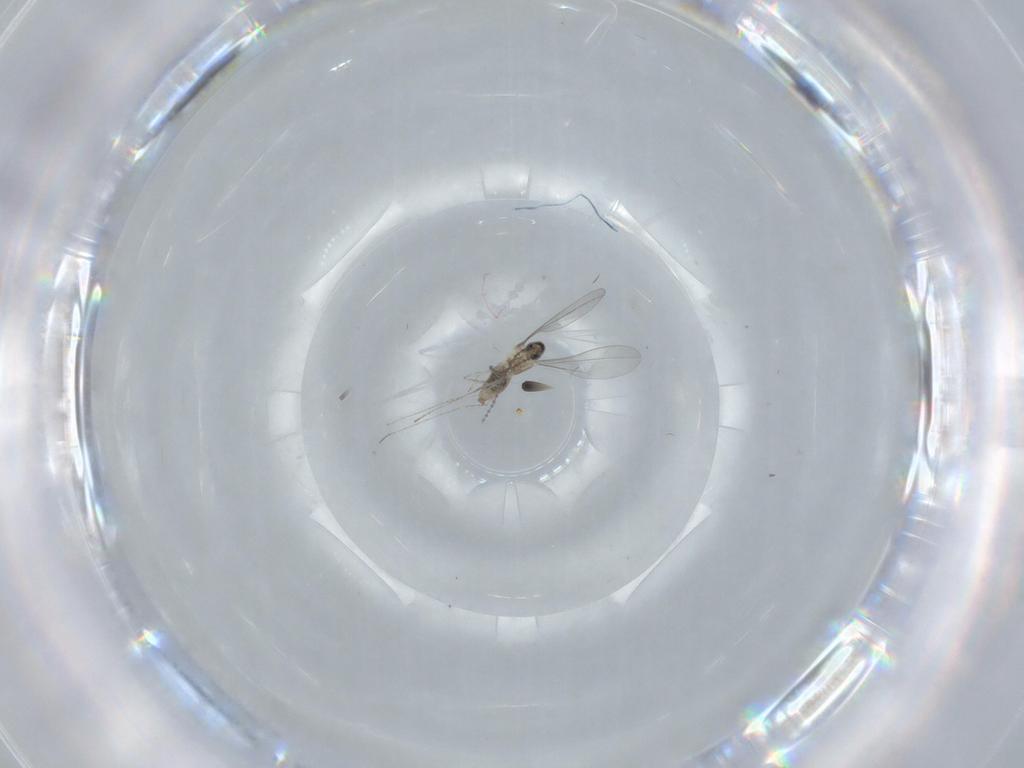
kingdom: Animalia
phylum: Arthropoda
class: Insecta
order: Diptera
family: Cecidomyiidae
